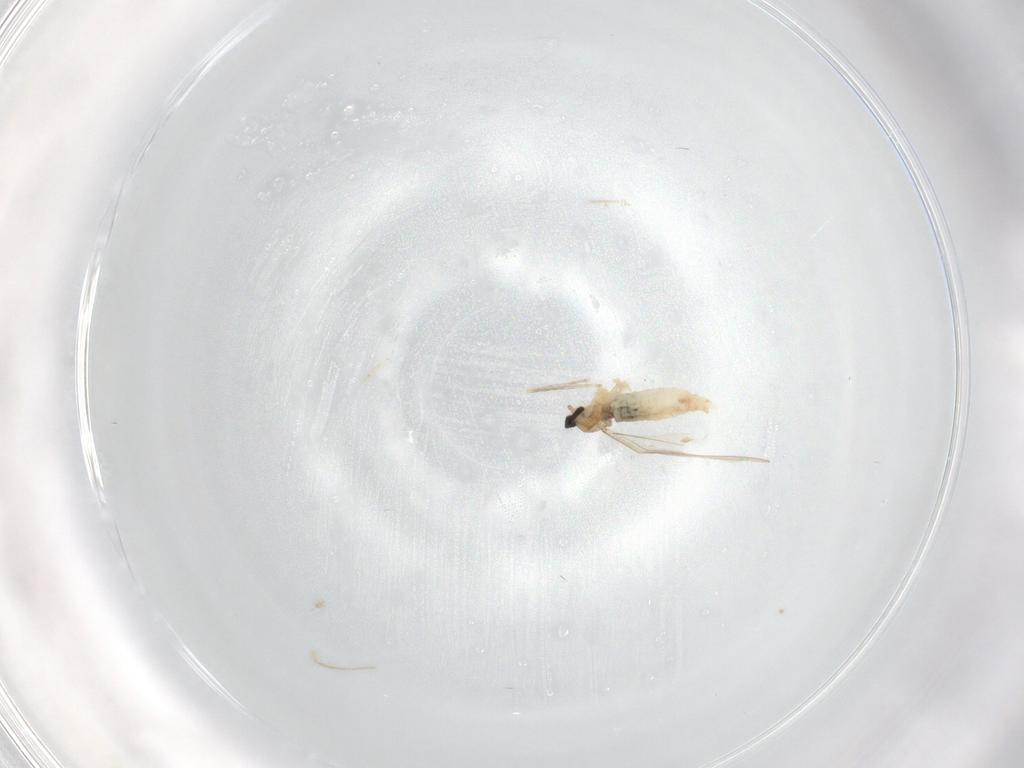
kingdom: Animalia
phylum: Arthropoda
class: Insecta
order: Diptera
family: Cecidomyiidae
